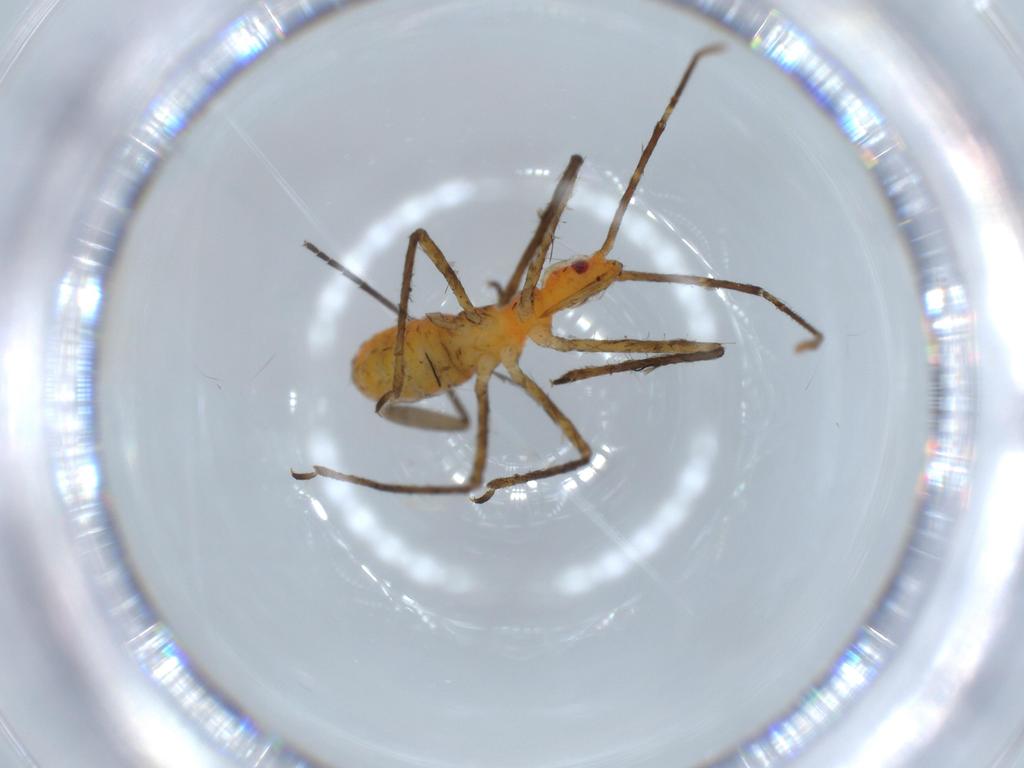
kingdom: Animalia
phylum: Arthropoda
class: Insecta
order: Hemiptera
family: Reduviidae
